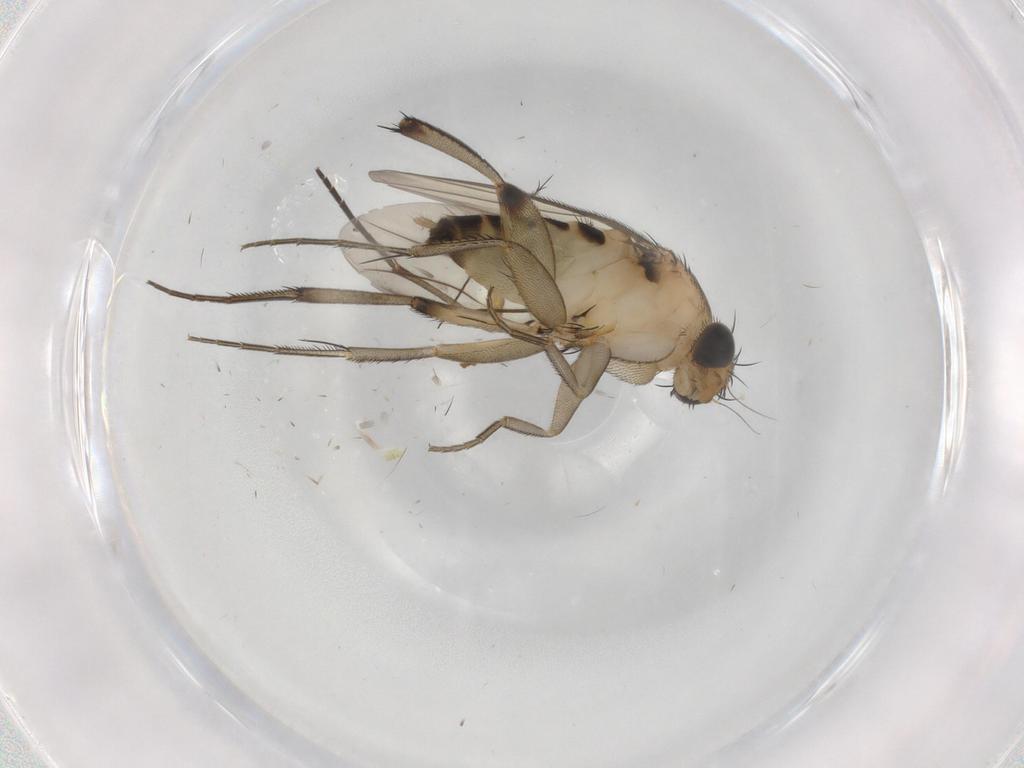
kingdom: Animalia
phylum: Arthropoda
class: Insecta
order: Diptera
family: Phoridae
